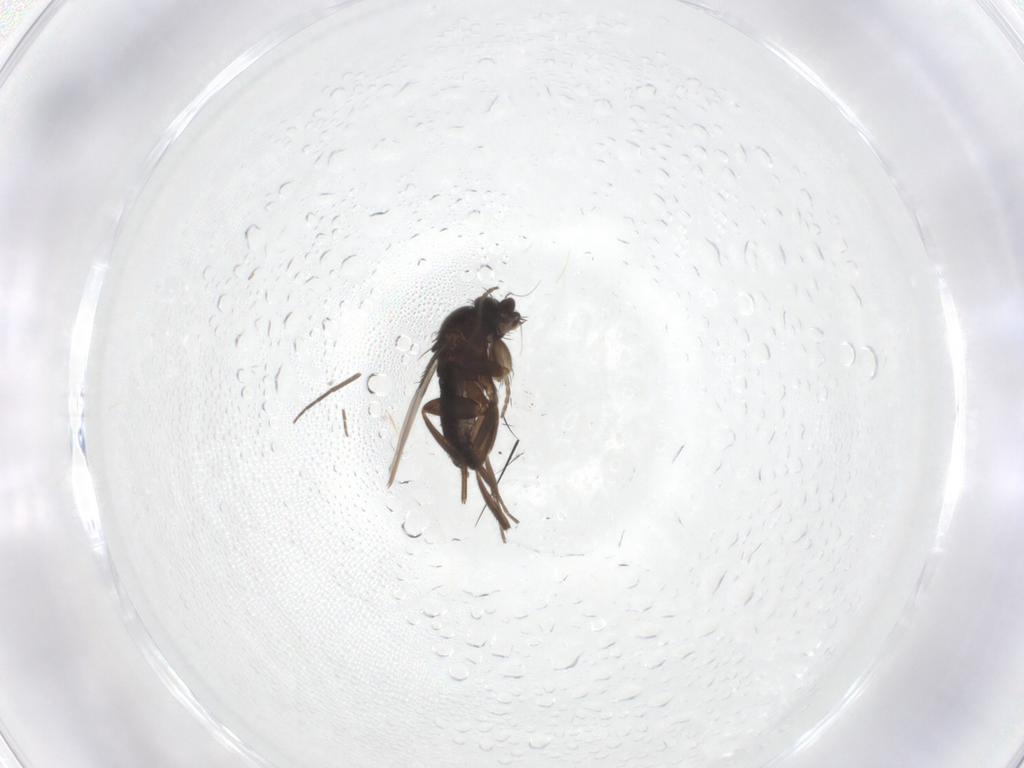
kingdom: Animalia
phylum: Arthropoda
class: Insecta
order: Diptera
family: Cecidomyiidae
